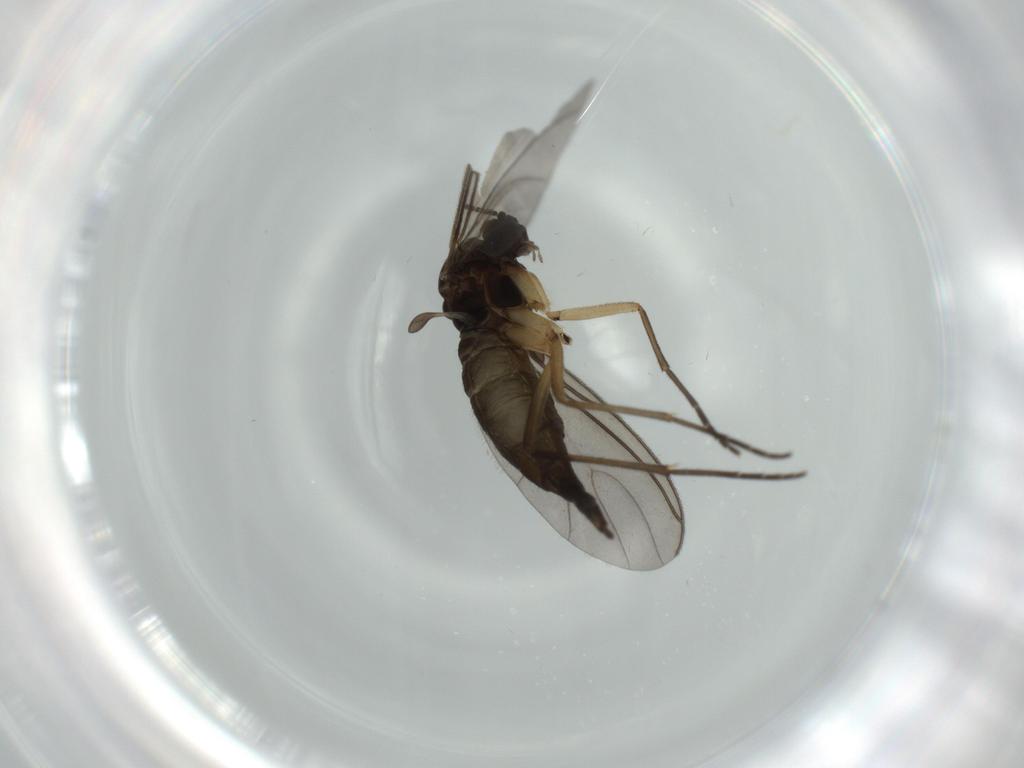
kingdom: Animalia
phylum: Arthropoda
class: Insecta
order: Diptera
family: Sciaridae
